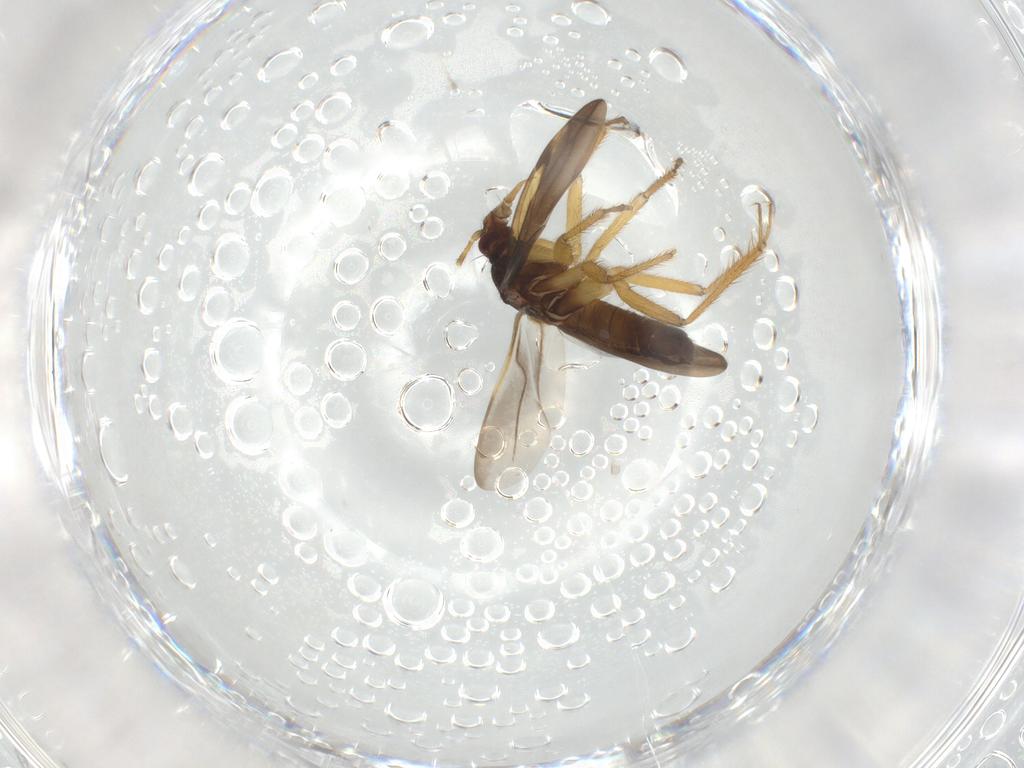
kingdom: Animalia
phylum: Arthropoda
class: Insecta
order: Hemiptera
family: Ceratocombidae
